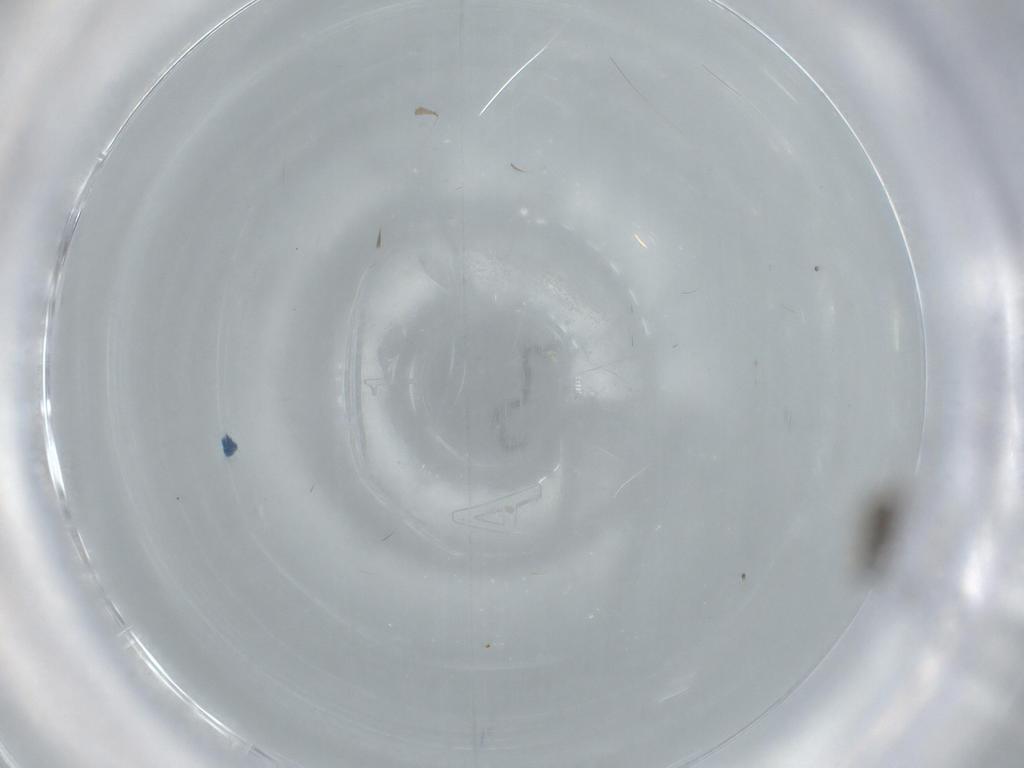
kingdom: Animalia
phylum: Arthropoda
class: Insecta
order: Diptera
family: Cecidomyiidae
